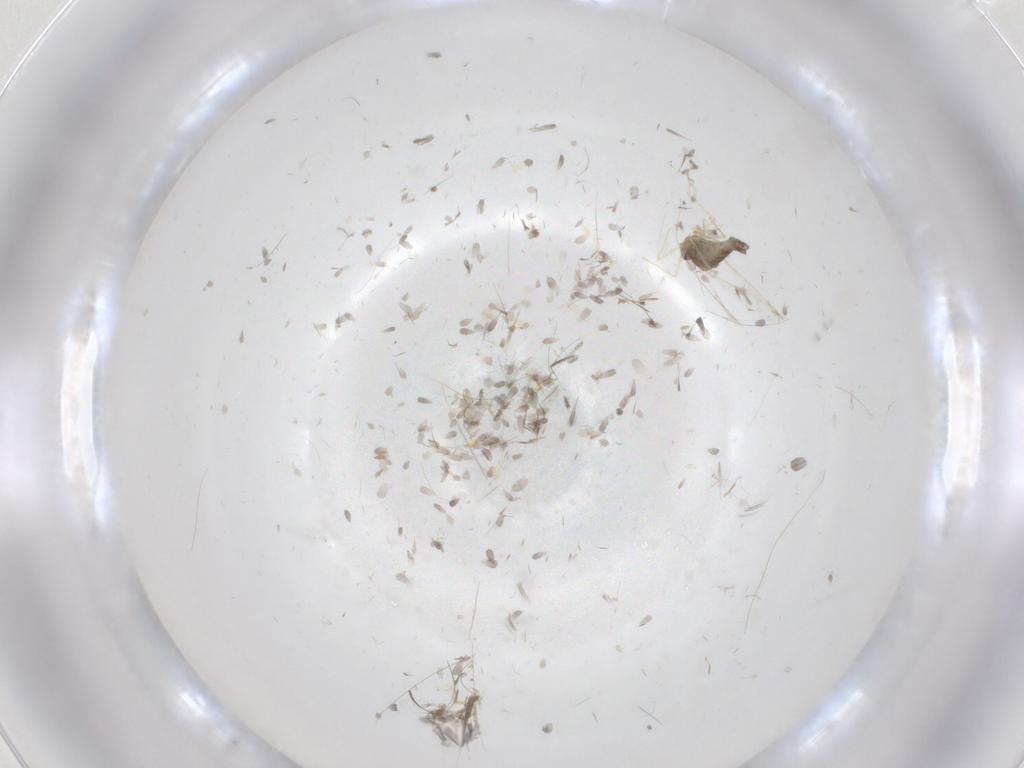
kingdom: Animalia
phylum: Arthropoda
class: Insecta
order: Diptera
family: Chironomidae
